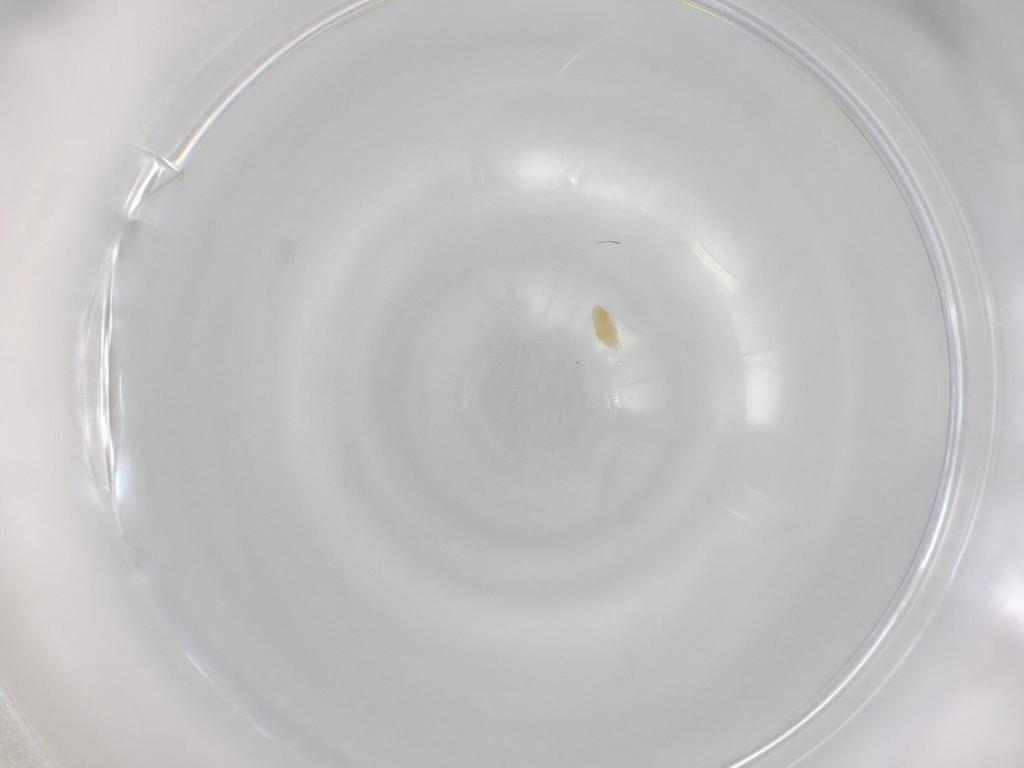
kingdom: Animalia
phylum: Arthropoda
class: Arachnida
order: Trombidiformes
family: Eupodidae
